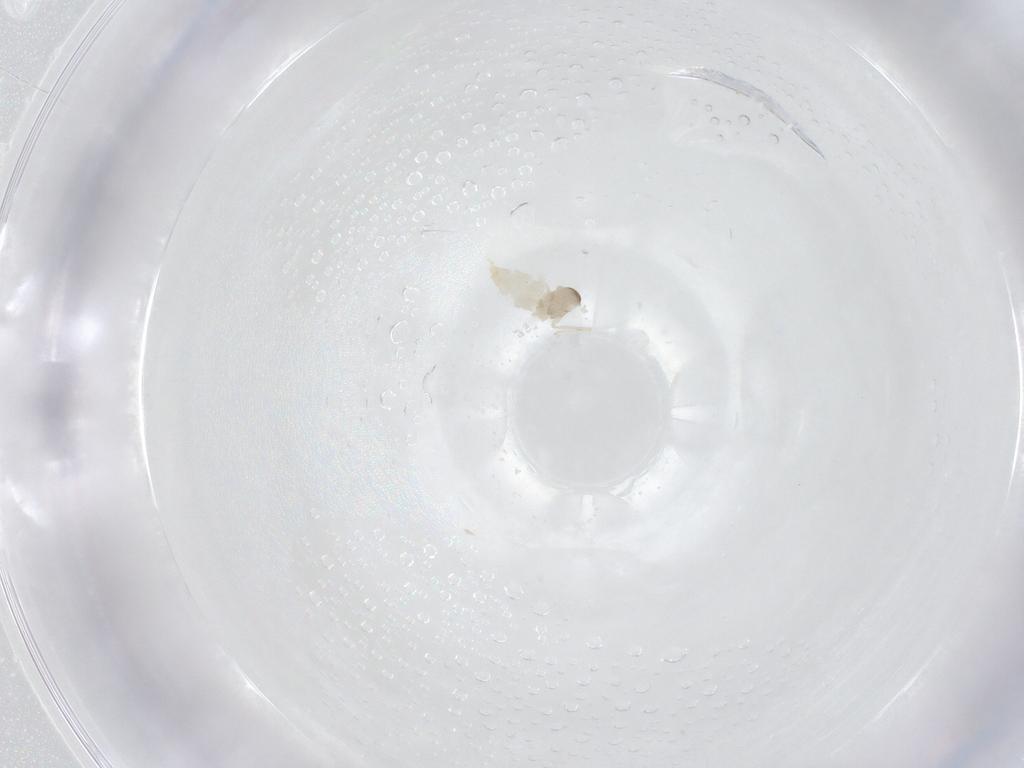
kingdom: Animalia
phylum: Arthropoda
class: Insecta
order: Diptera
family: Cecidomyiidae
